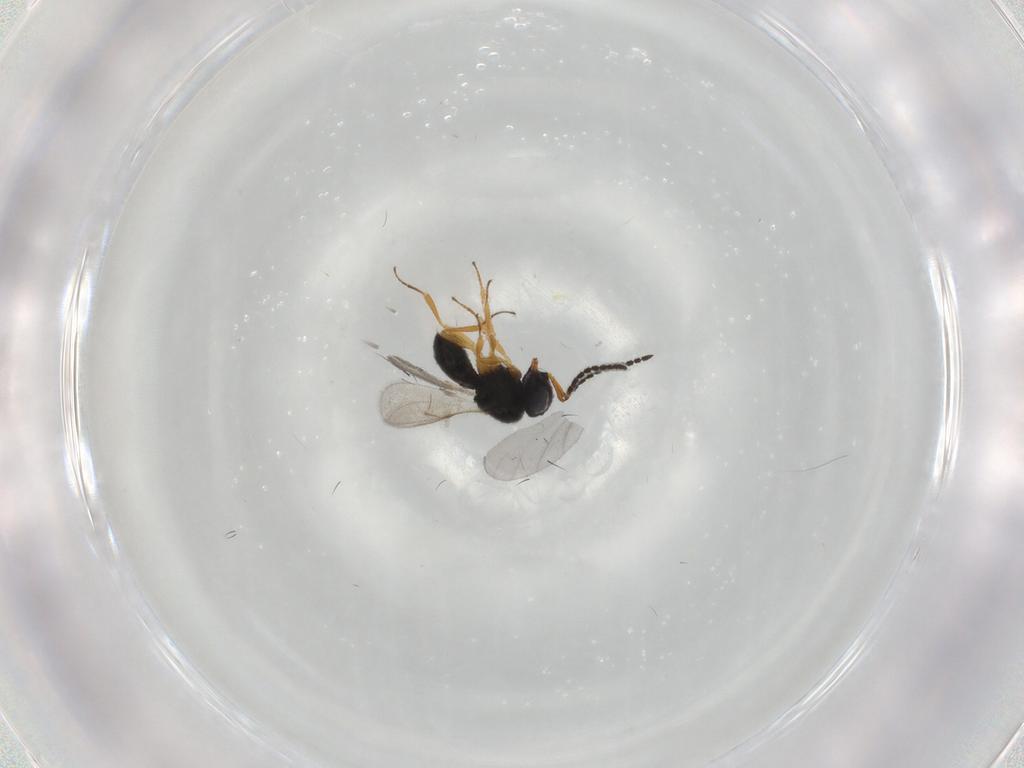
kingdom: Animalia
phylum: Arthropoda
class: Insecta
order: Hymenoptera
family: Scelionidae
